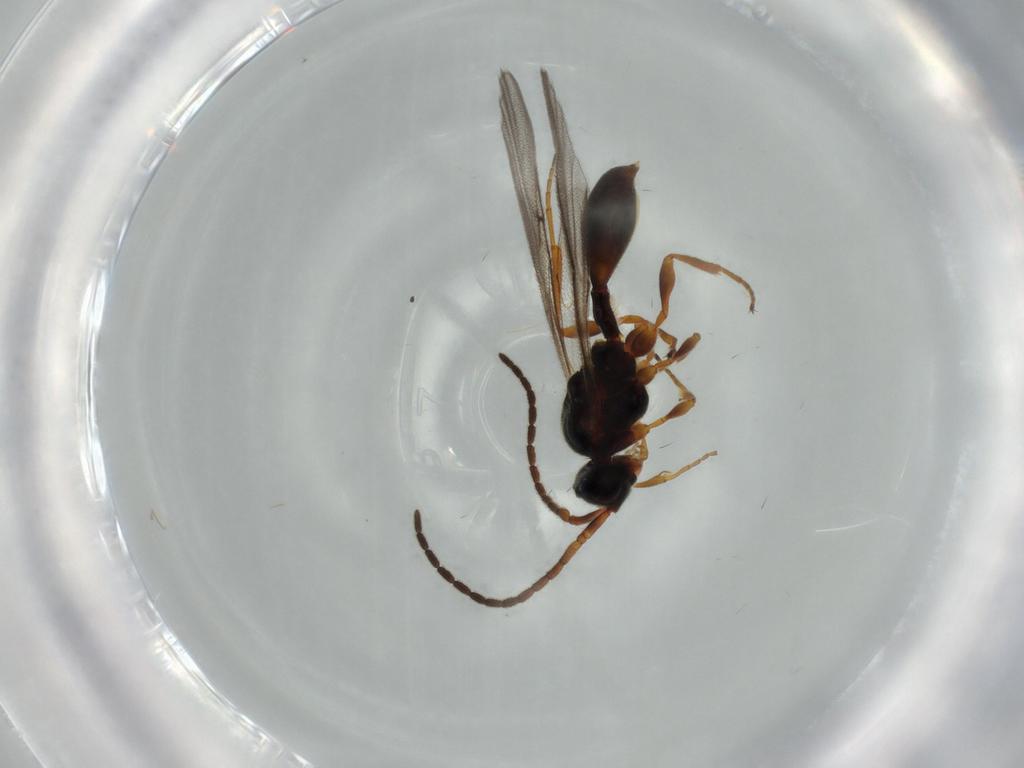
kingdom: Animalia
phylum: Arthropoda
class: Insecta
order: Hymenoptera
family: Diapriidae
